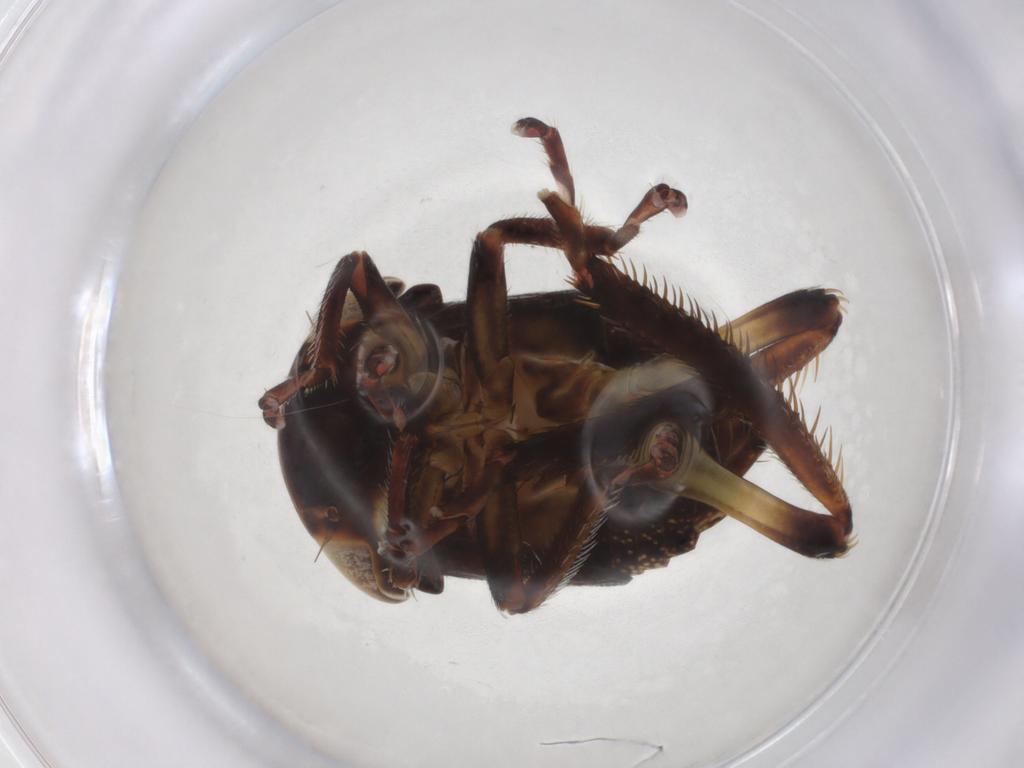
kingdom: Animalia
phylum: Arthropoda
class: Insecta
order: Hemiptera
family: Cicadellidae
